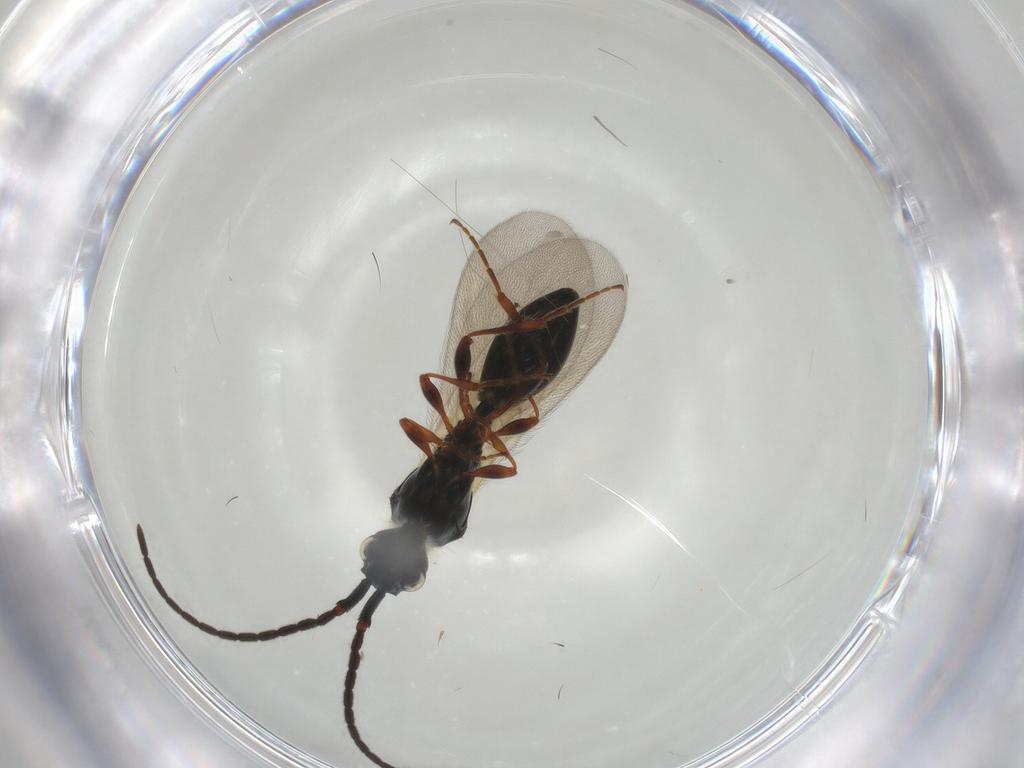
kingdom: Animalia
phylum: Arthropoda
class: Insecta
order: Hymenoptera
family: Diapriidae
